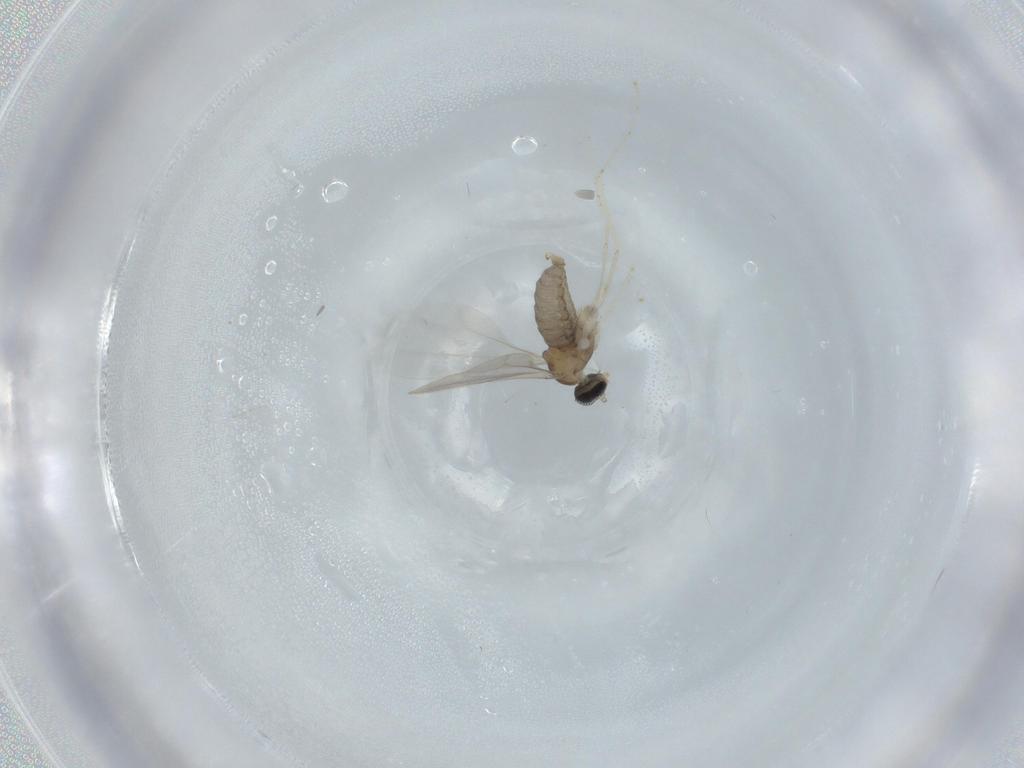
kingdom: Animalia
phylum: Arthropoda
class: Insecta
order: Diptera
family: Cecidomyiidae
